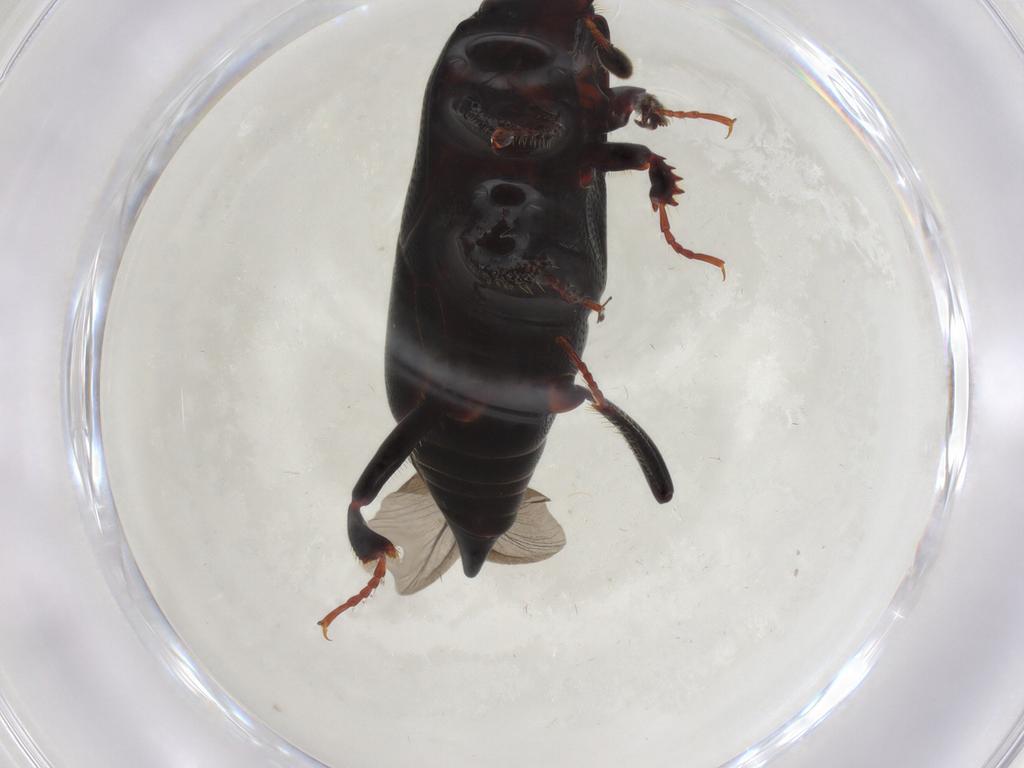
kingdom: Animalia
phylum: Arthropoda
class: Insecta
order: Coleoptera
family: Histeridae
